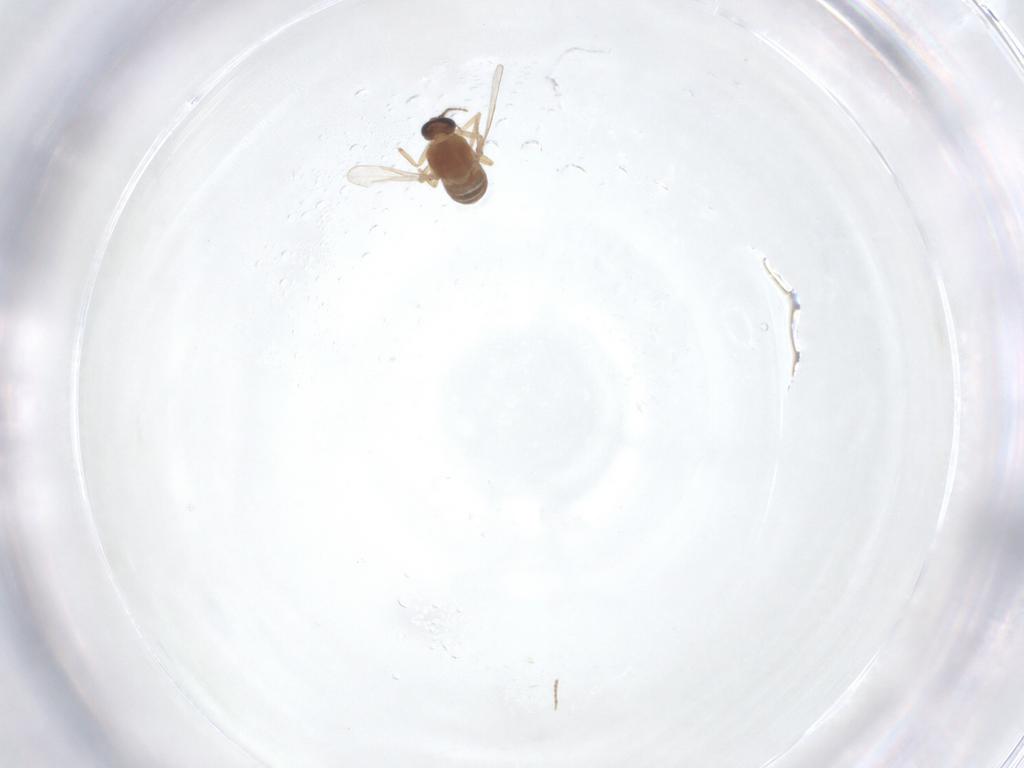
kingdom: Animalia
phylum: Arthropoda
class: Insecta
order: Diptera
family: Ceratopogonidae
